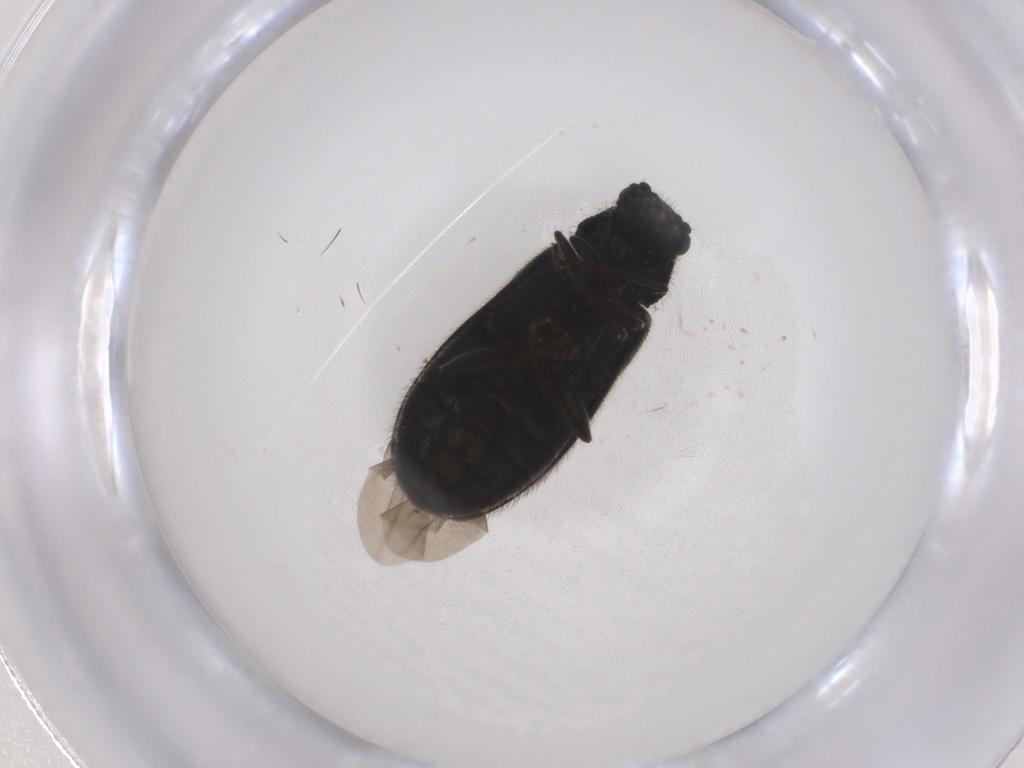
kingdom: Animalia
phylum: Arthropoda
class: Insecta
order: Coleoptera
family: Melyridae
